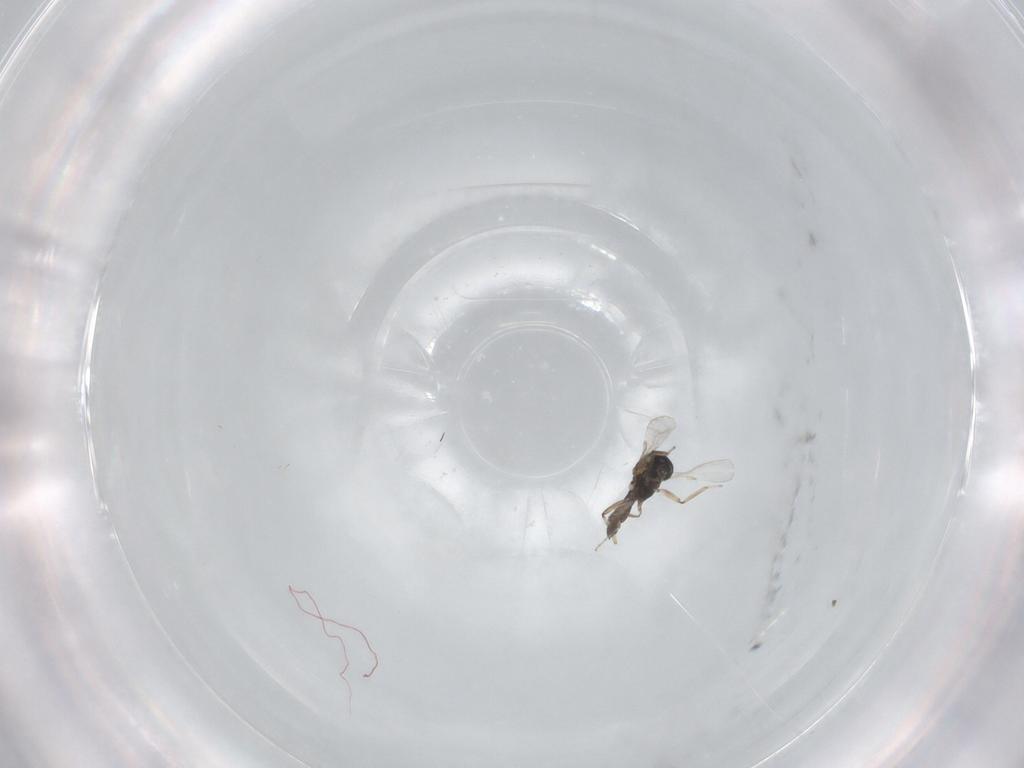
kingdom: Animalia
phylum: Arthropoda
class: Insecta
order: Diptera
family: Ceratopogonidae
